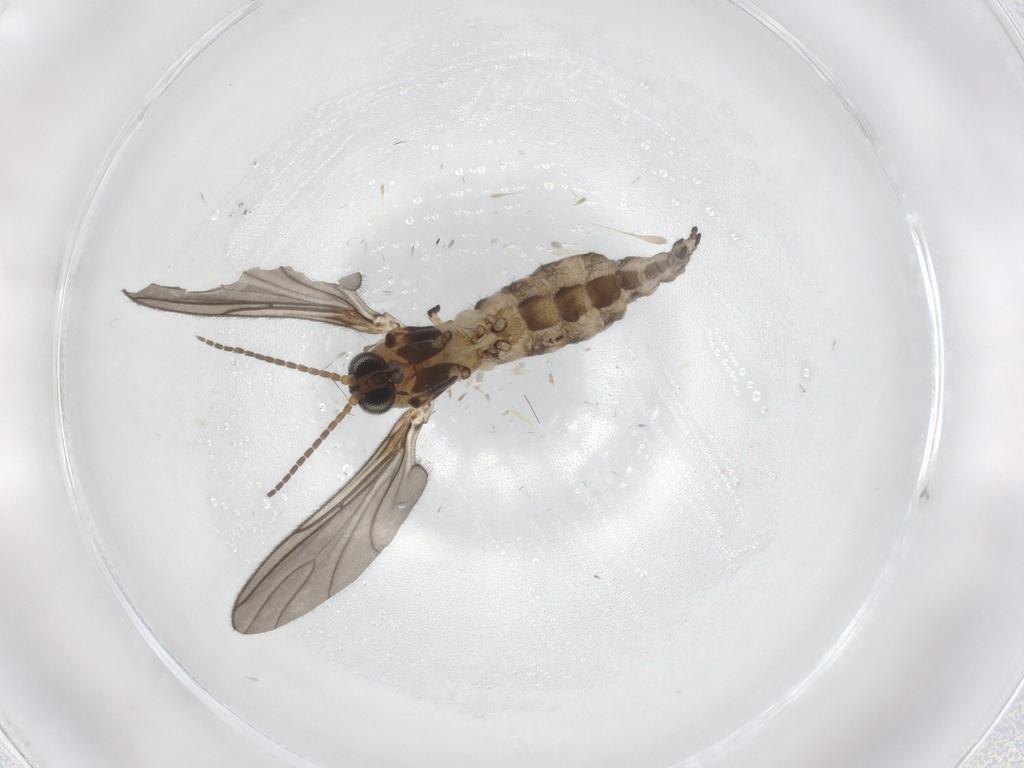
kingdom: Animalia
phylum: Arthropoda
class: Insecta
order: Diptera
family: Sciaridae
